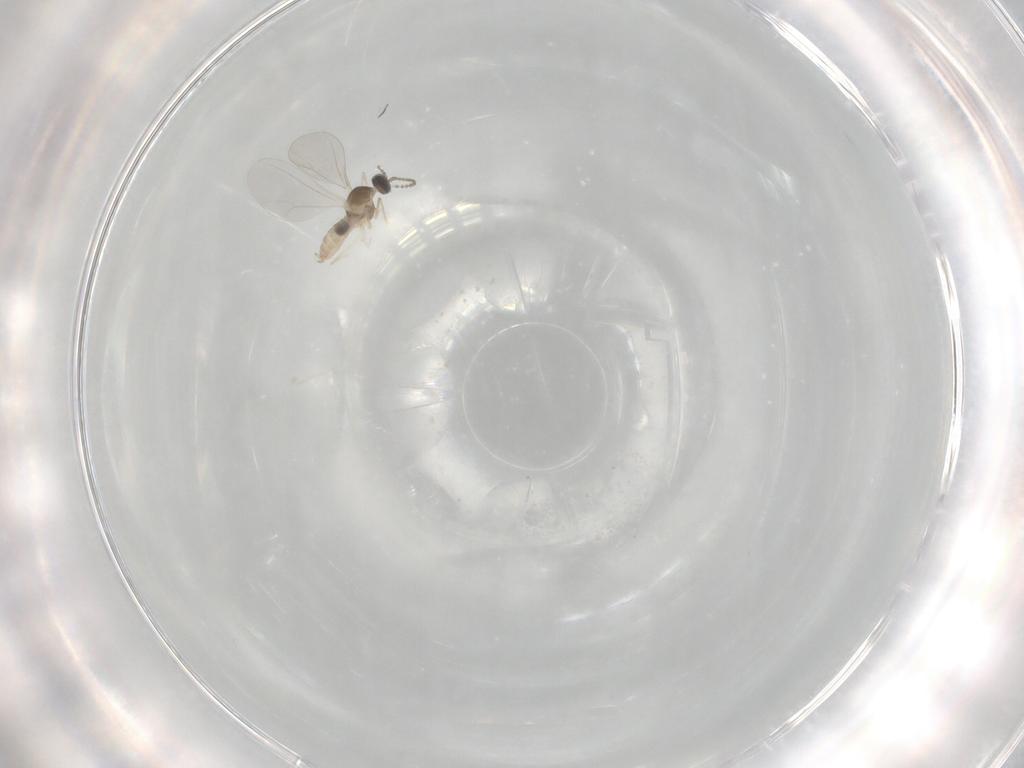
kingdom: Animalia
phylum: Arthropoda
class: Insecta
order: Diptera
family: Cecidomyiidae
